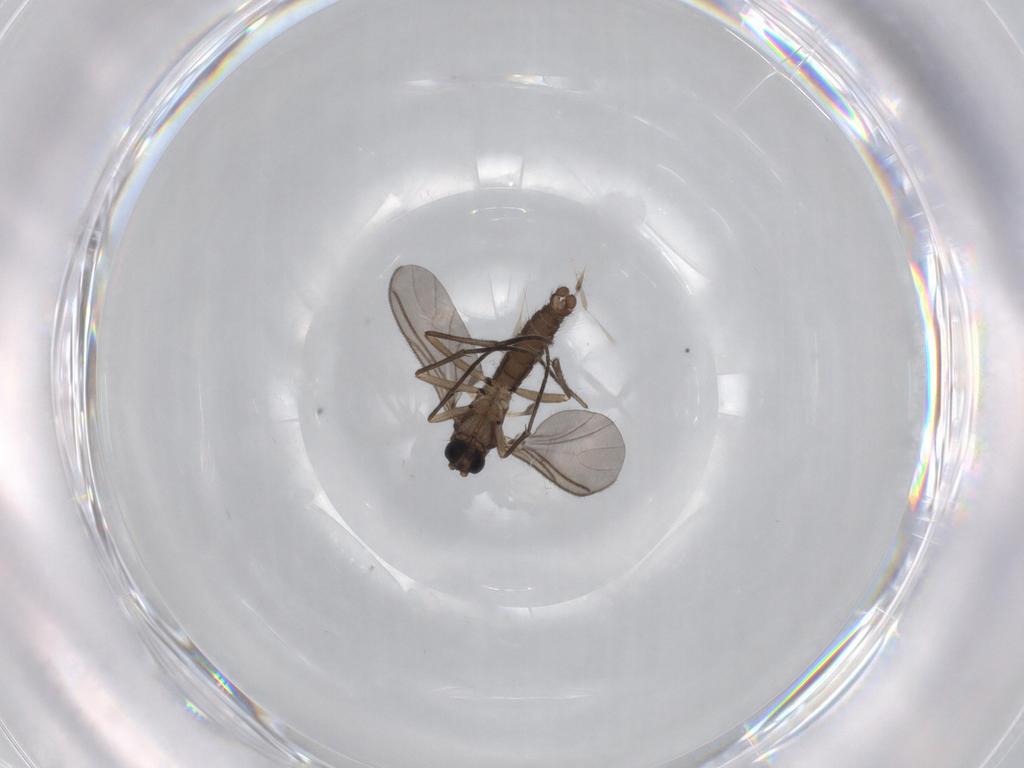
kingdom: Animalia
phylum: Arthropoda
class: Insecta
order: Diptera
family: Sciaridae
